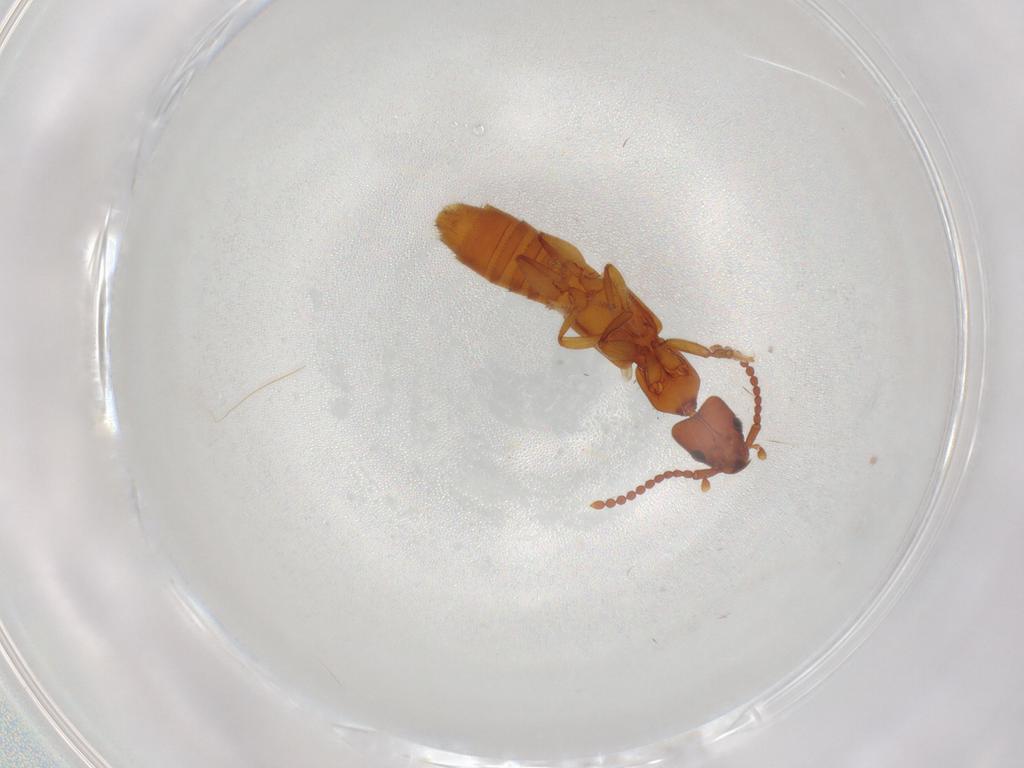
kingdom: Animalia
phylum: Arthropoda
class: Insecta
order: Coleoptera
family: Staphylinidae
